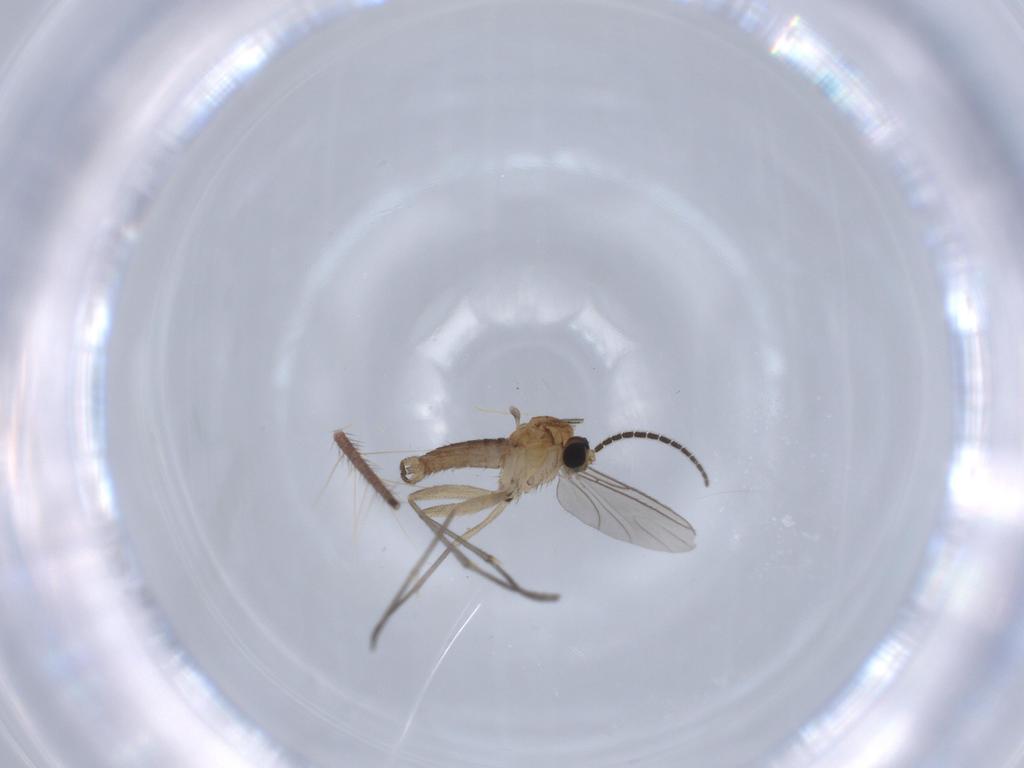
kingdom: Animalia
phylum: Arthropoda
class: Insecta
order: Diptera
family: Sciaridae
